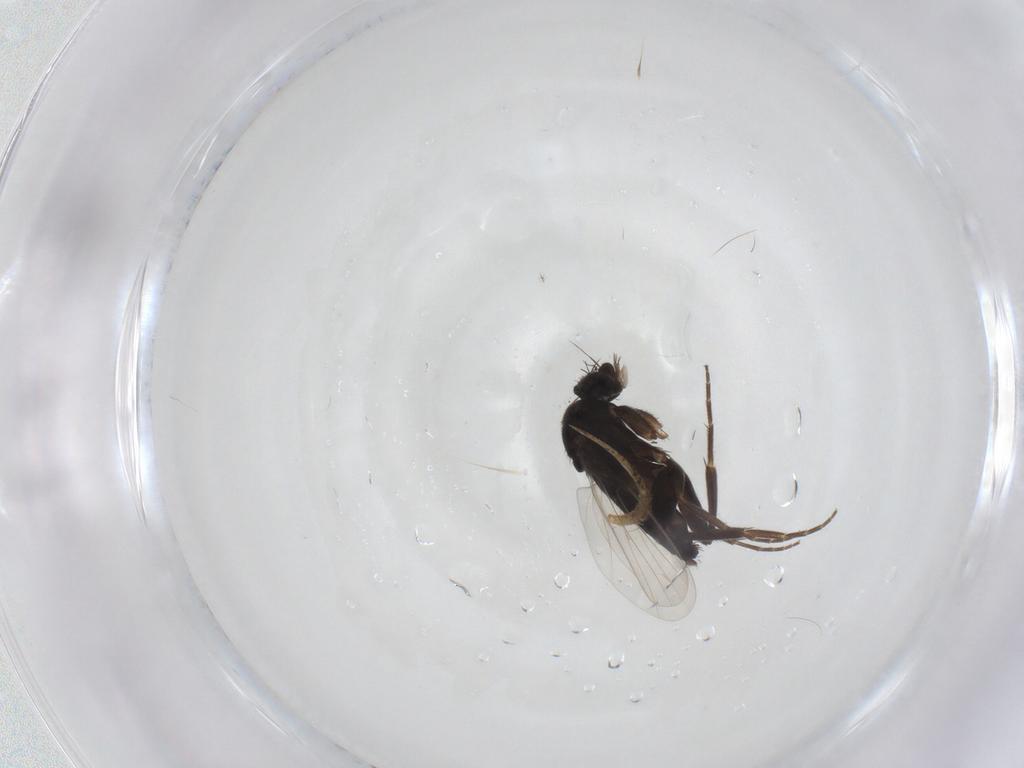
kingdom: Animalia
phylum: Arthropoda
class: Insecta
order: Diptera
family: Phoridae
